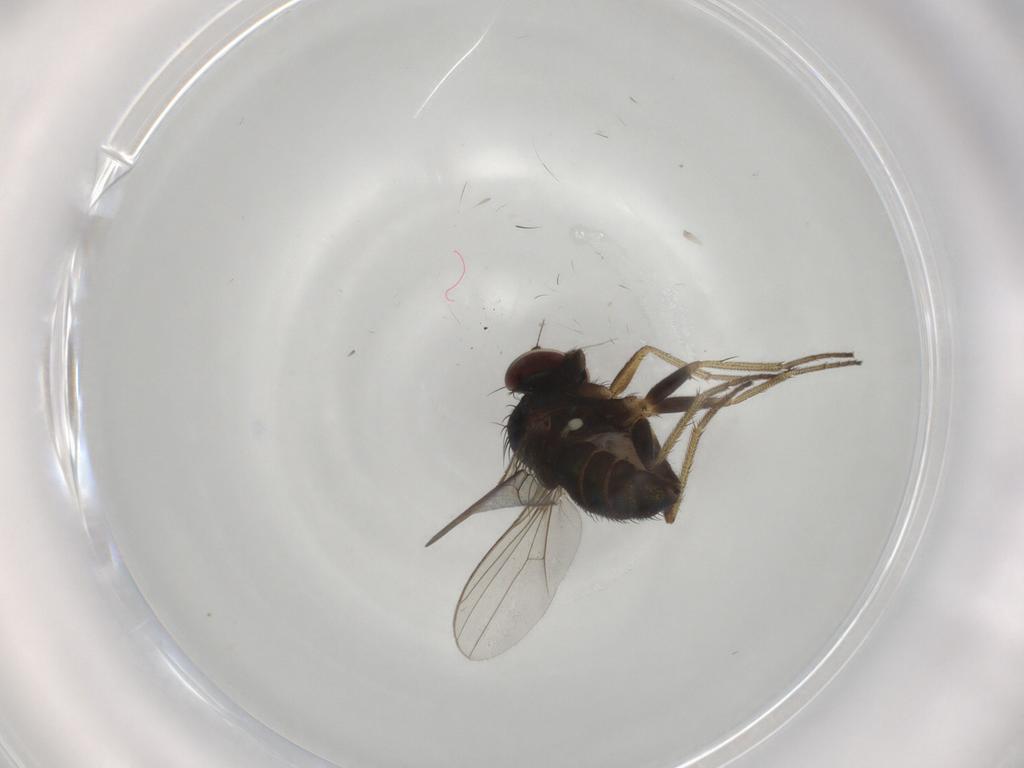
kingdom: Animalia
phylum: Arthropoda
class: Insecta
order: Diptera
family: Dolichopodidae
